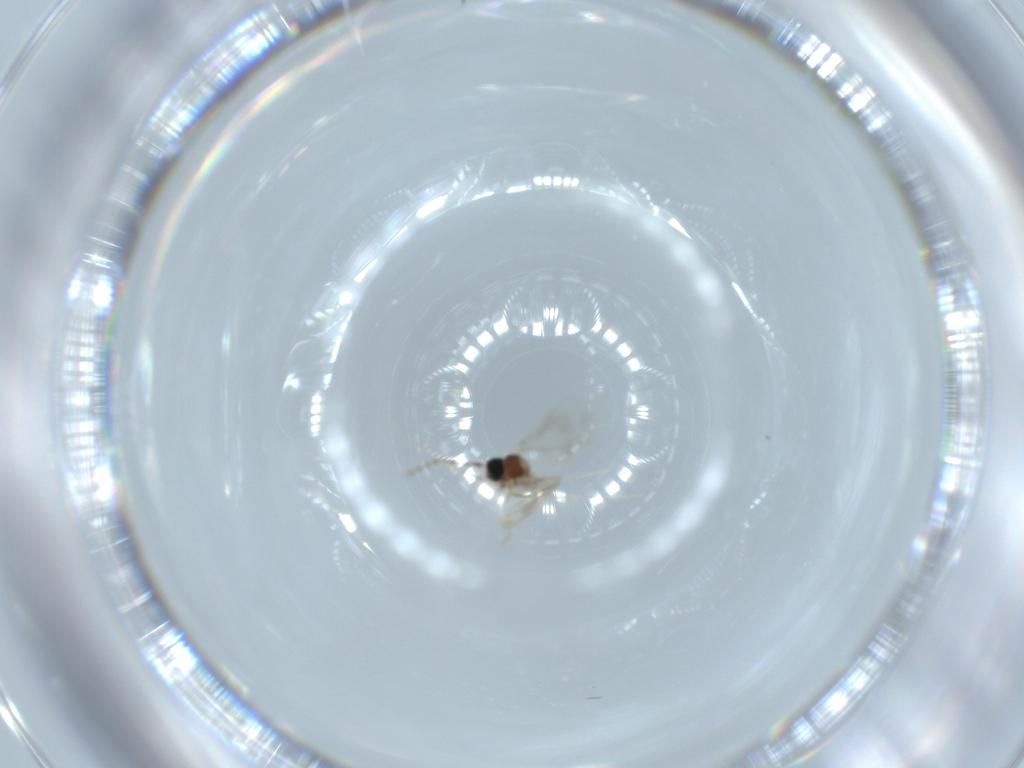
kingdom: Animalia
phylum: Arthropoda
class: Insecta
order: Diptera
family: Cecidomyiidae
